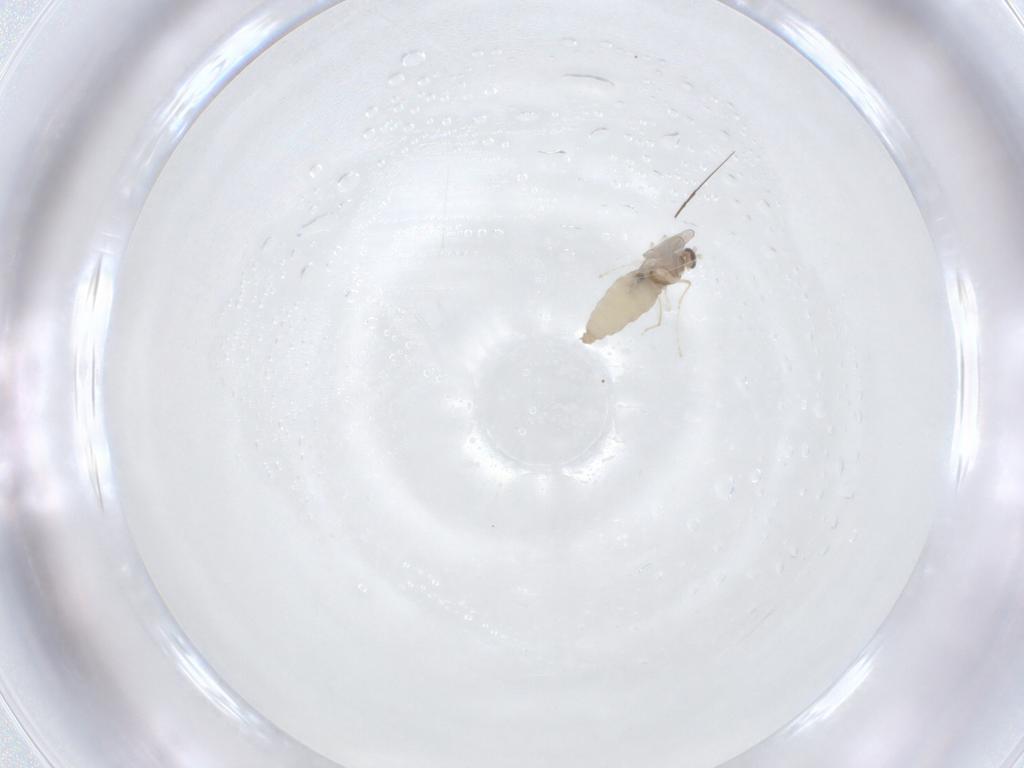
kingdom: Animalia
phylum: Arthropoda
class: Insecta
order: Diptera
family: Cecidomyiidae
